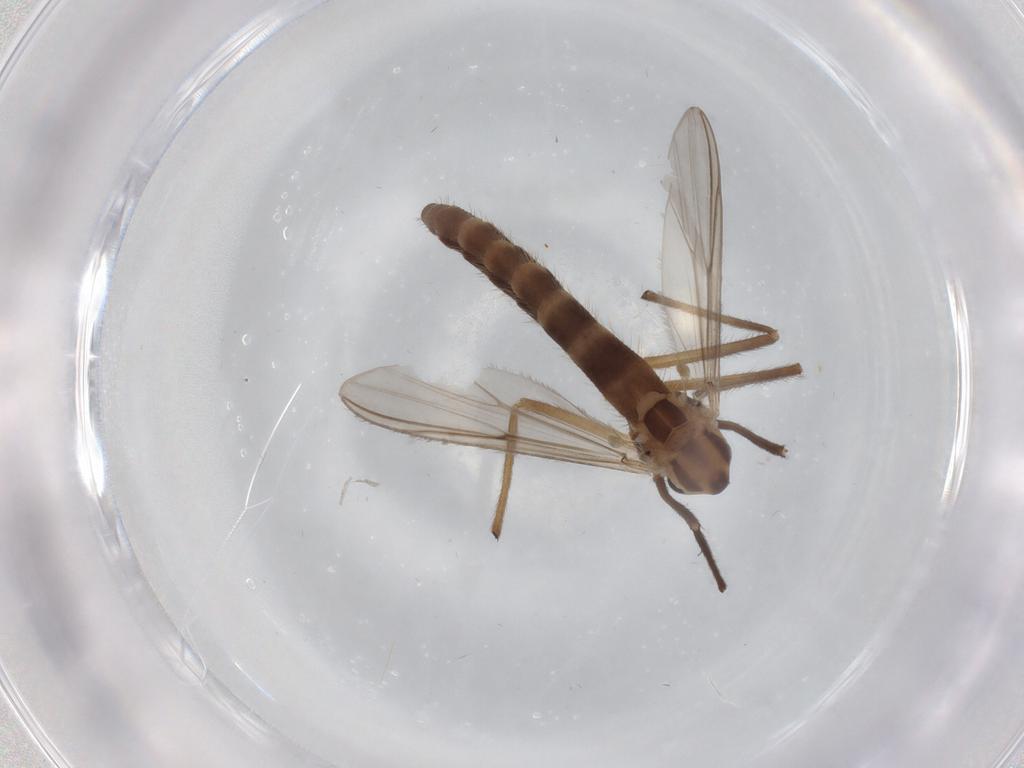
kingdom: Animalia
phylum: Arthropoda
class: Insecta
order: Diptera
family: Chironomidae
